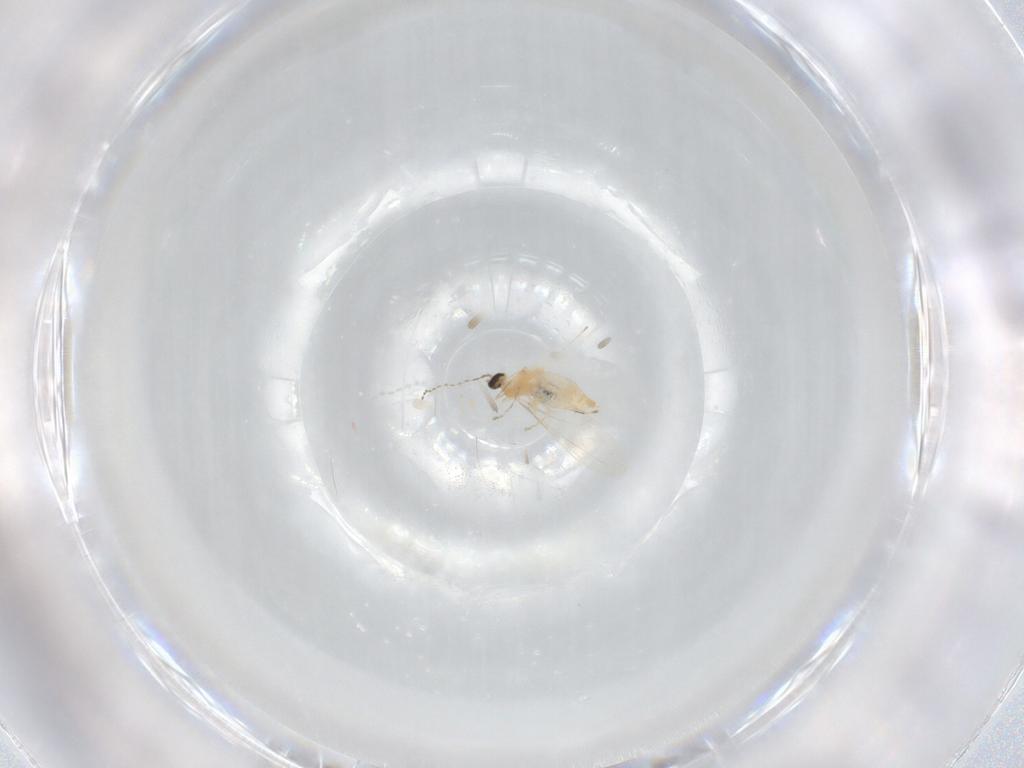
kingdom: Animalia
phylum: Arthropoda
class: Insecta
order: Diptera
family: Cecidomyiidae
